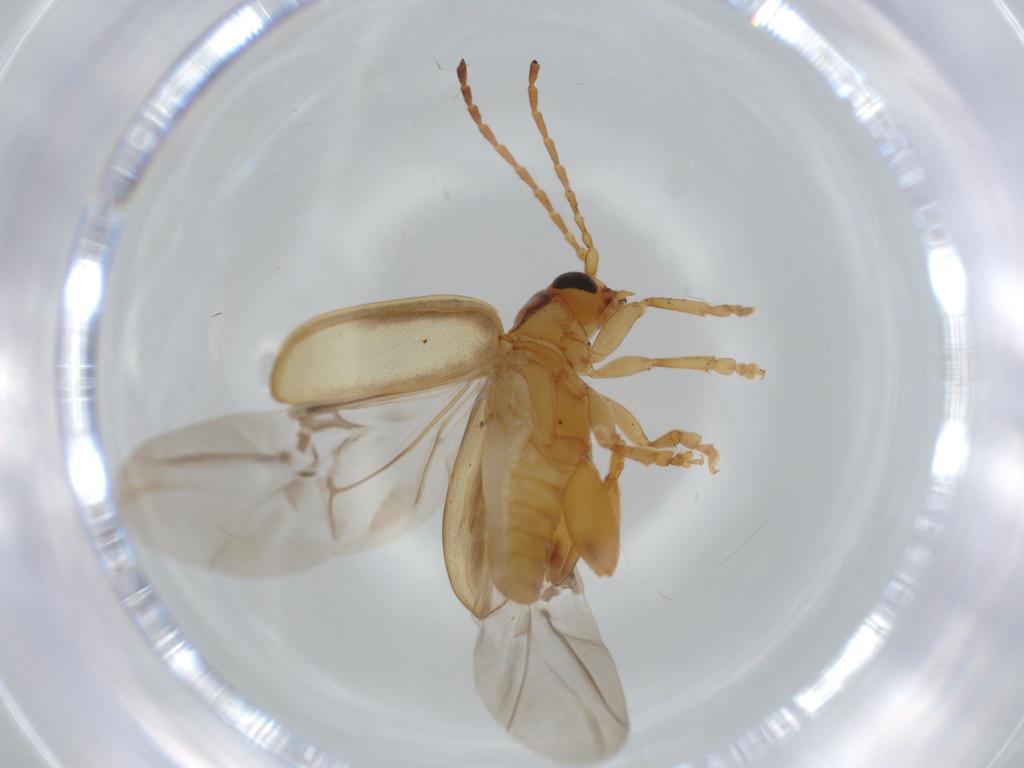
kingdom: Animalia
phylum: Arthropoda
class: Insecta
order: Coleoptera
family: Chrysomelidae
